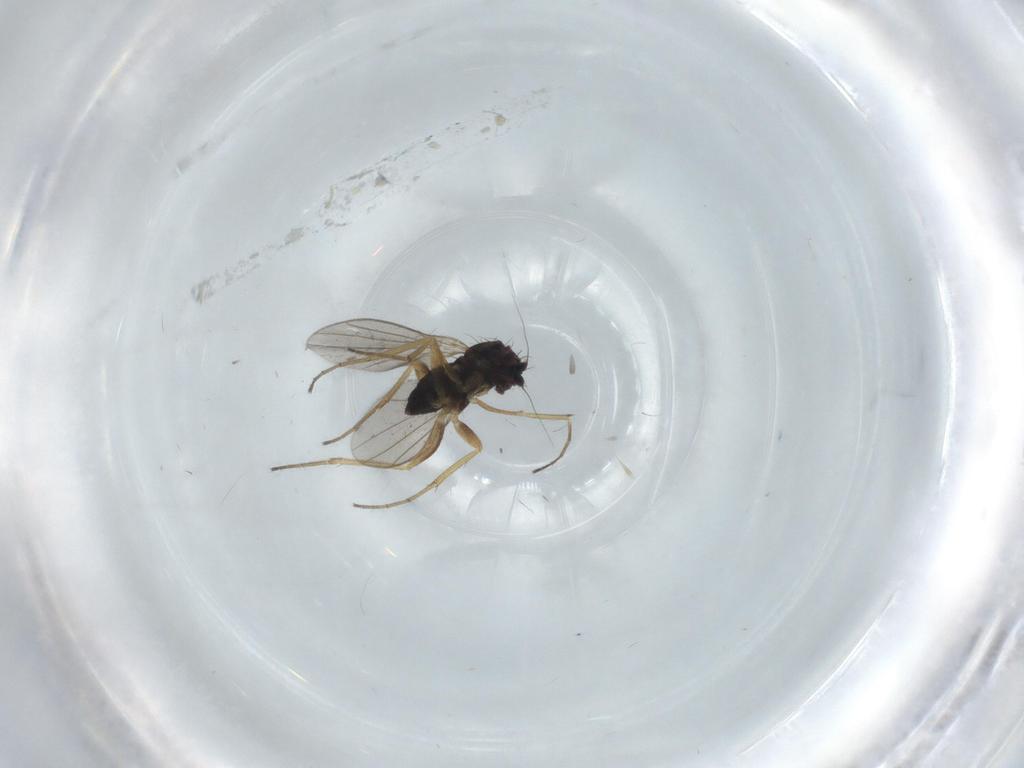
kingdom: Animalia
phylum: Arthropoda
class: Insecta
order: Diptera
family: Dolichopodidae
